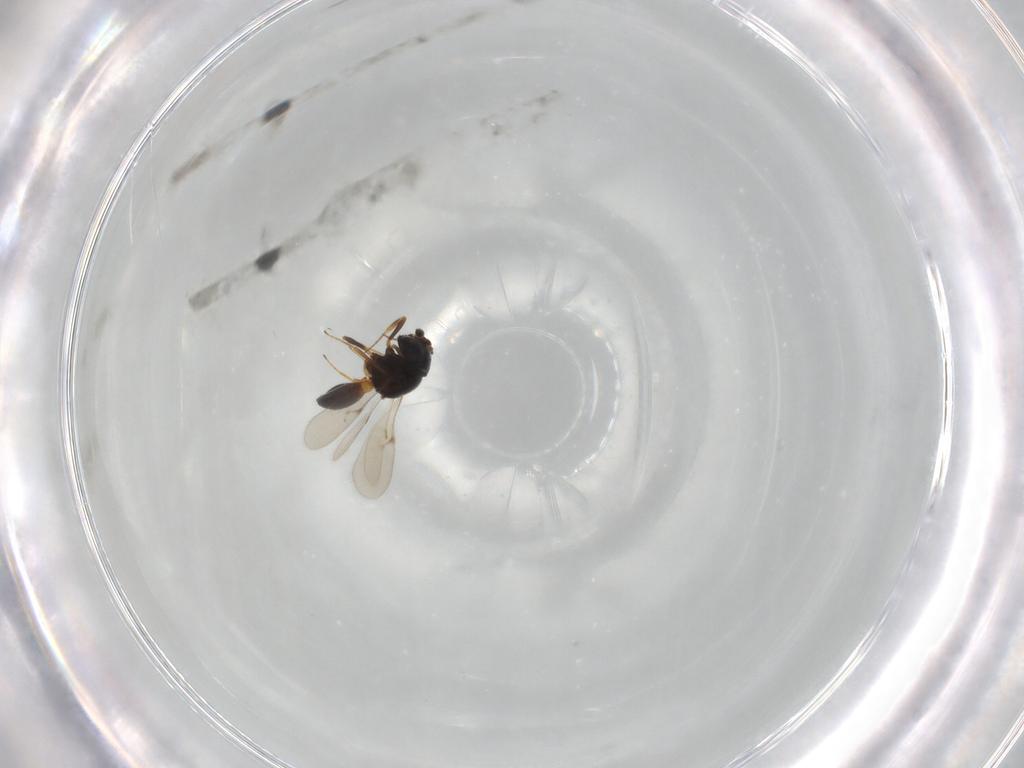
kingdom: Animalia
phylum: Arthropoda
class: Insecta
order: Hymenoptera
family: Scelionidae
